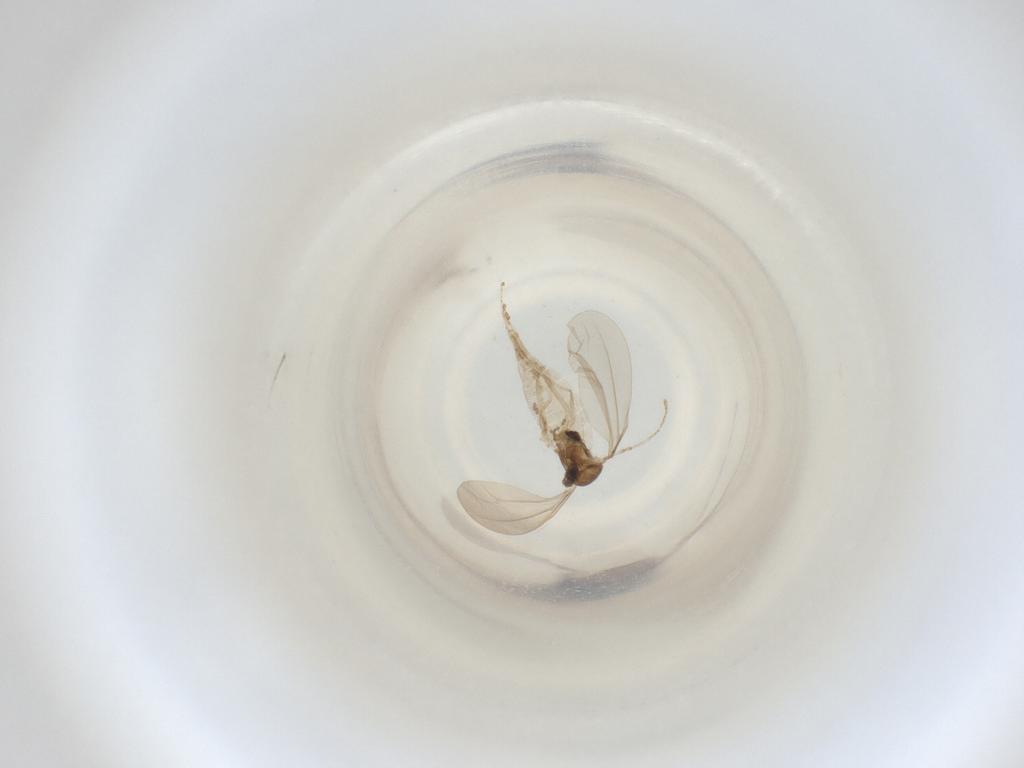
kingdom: Animalia
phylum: Arthropoda
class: Insecta
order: Diptera
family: Cecidomyiidae
